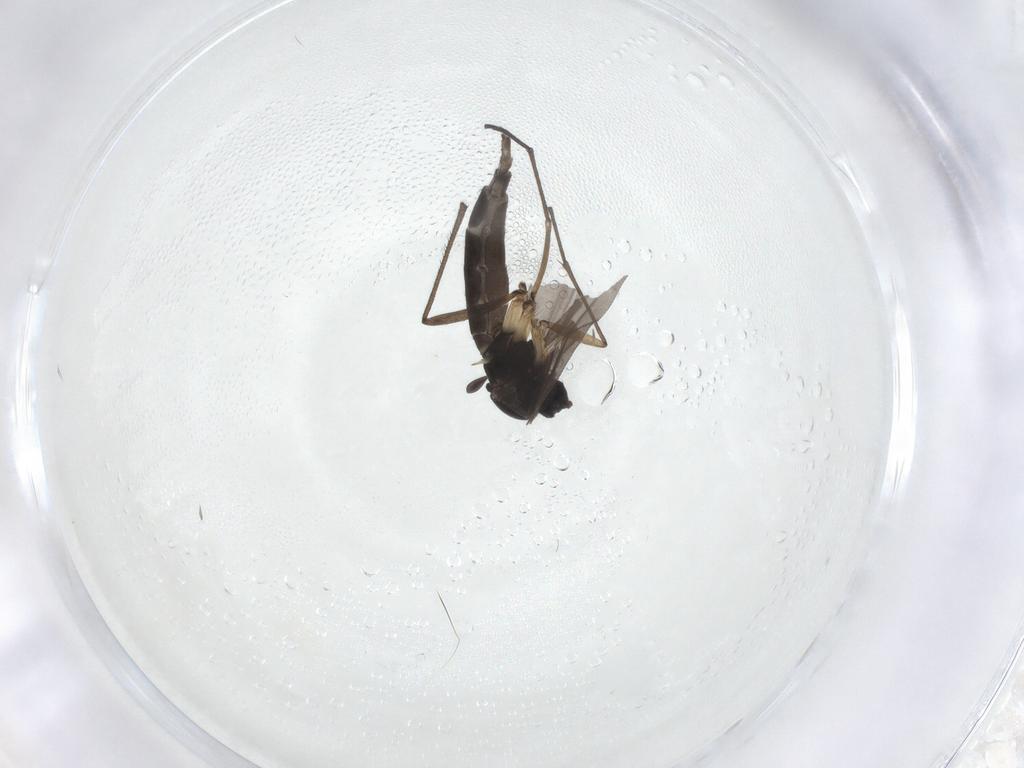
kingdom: Animalia
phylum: Arthropoda
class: Insecta
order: Diptera
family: Sciaridae
